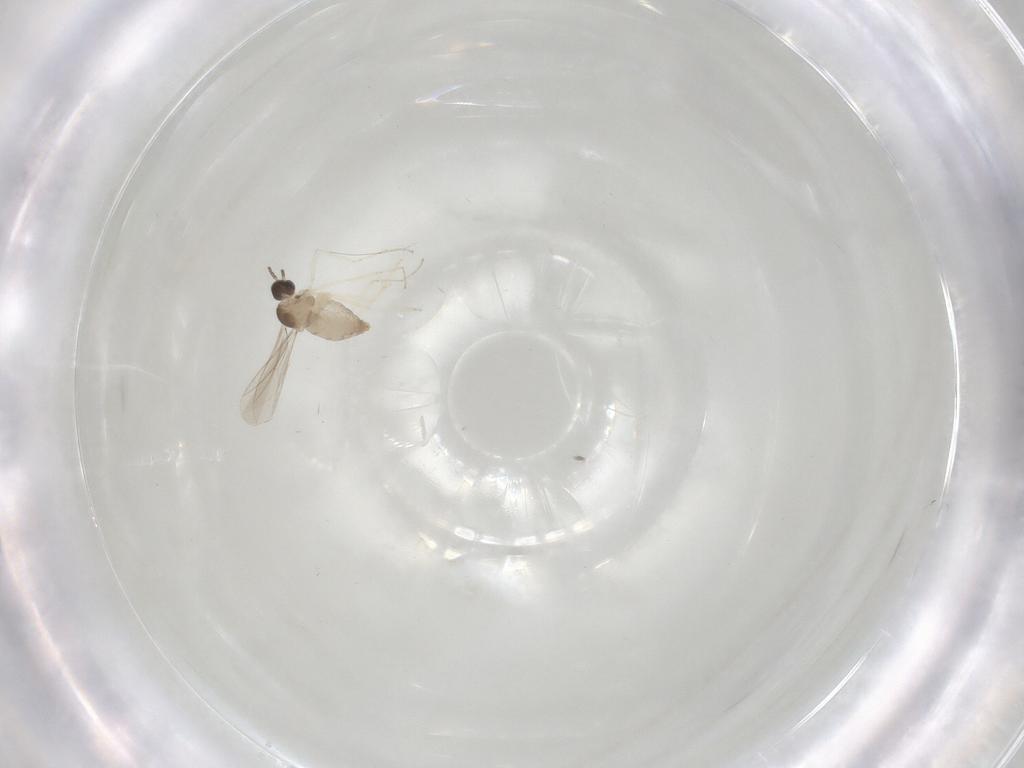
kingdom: Animalia
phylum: Arthropoda
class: Insecta
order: Diptera
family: Cecidomyiidae
